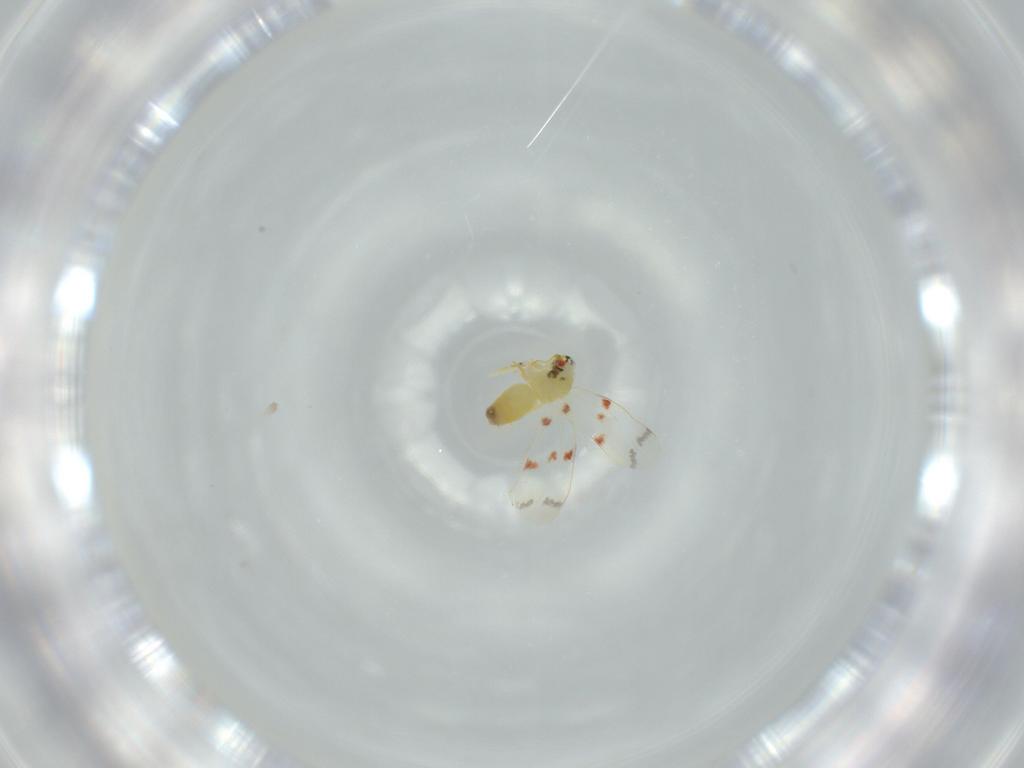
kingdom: Animalia
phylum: Arthropoda
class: Insecta
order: Hemiptera
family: Aleyrodidae
